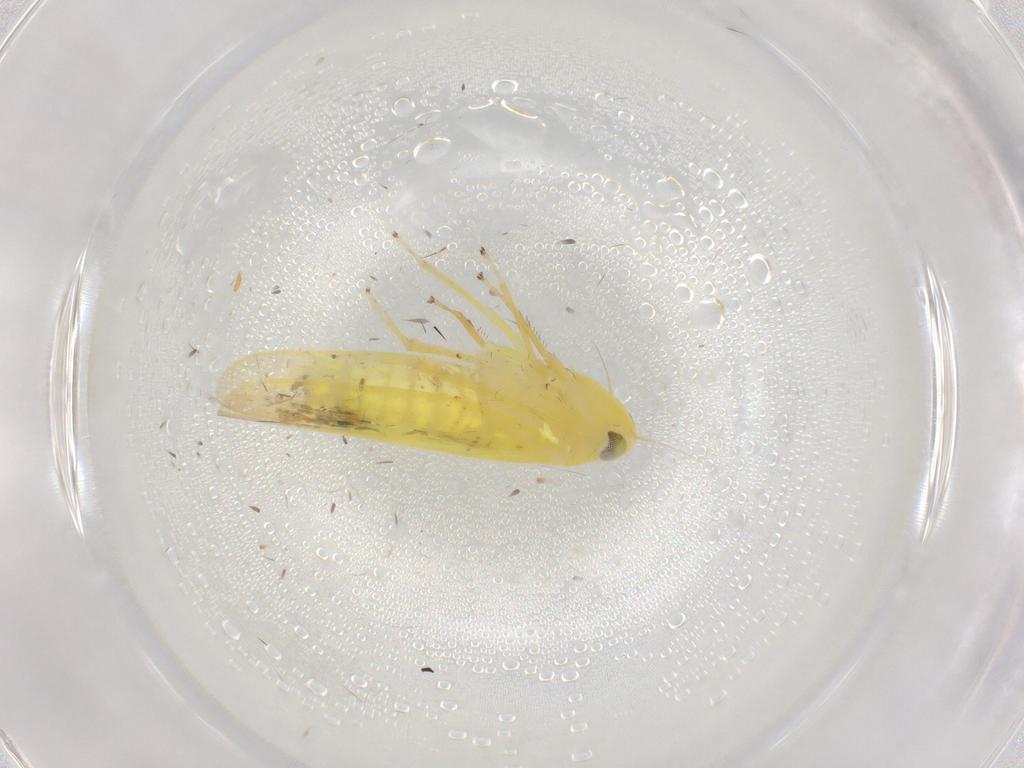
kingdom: Animalia
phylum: Arthropoda
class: Insecta
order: Hemiptera
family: Cicadellidae
